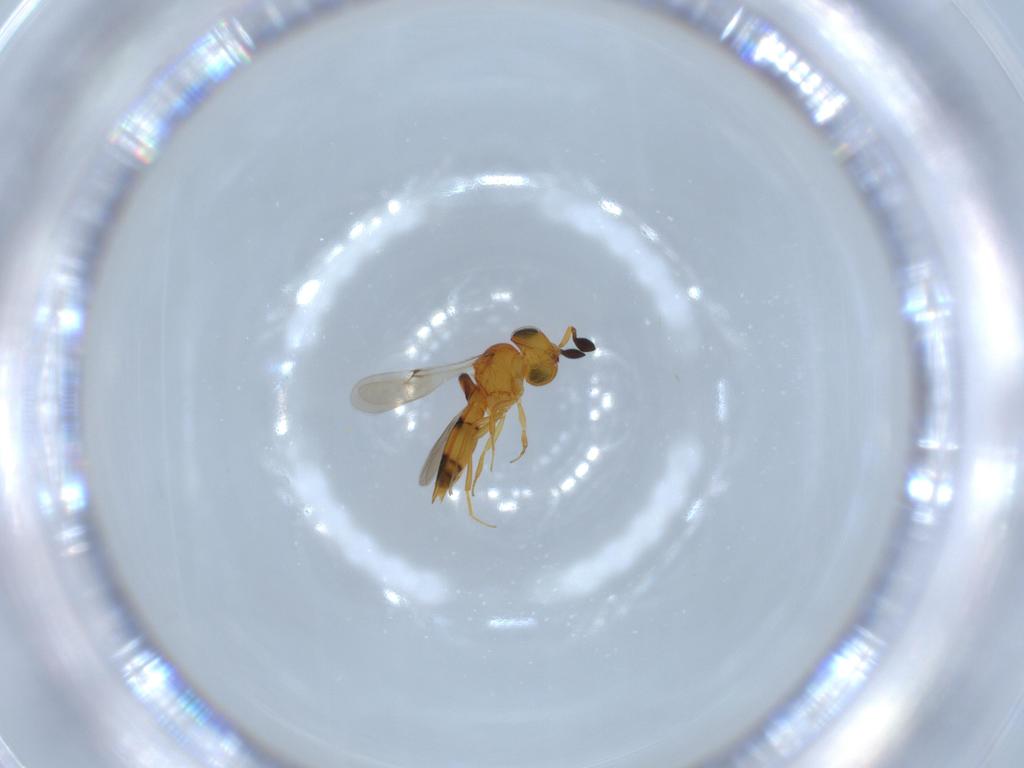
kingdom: Animalia
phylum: Arthropoda
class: Insecta
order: Hymenoptera
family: Scelionidae
